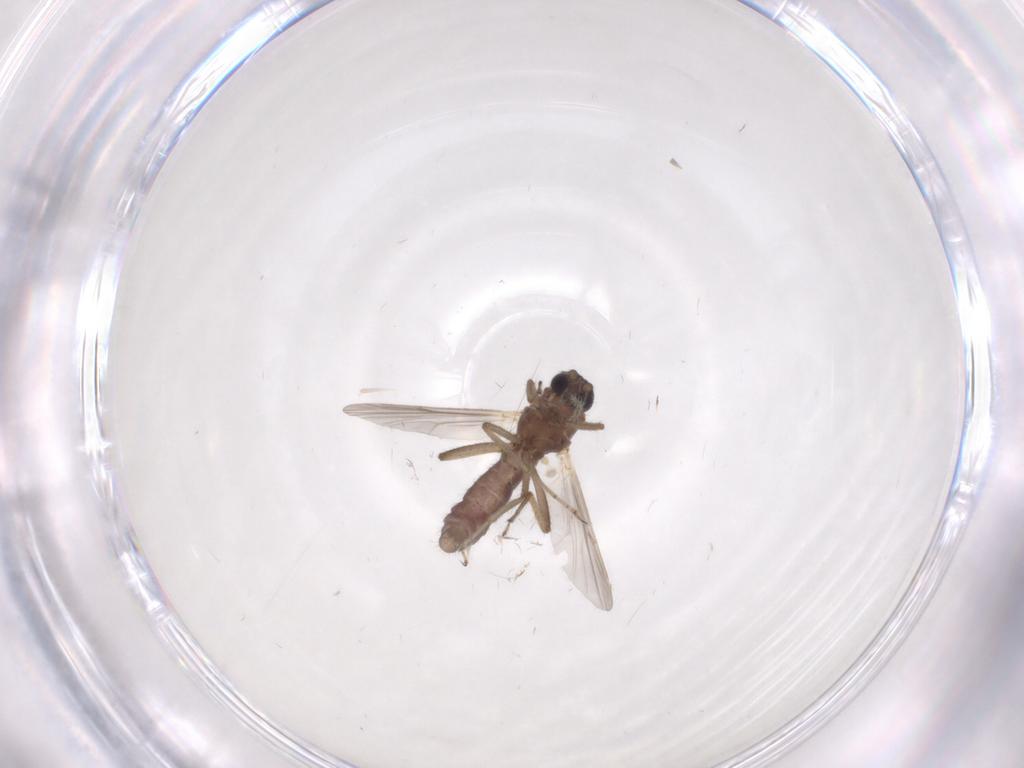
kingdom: Animalia
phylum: Arthropoda
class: Insecta
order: Diptera
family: Ceratopogonidae
